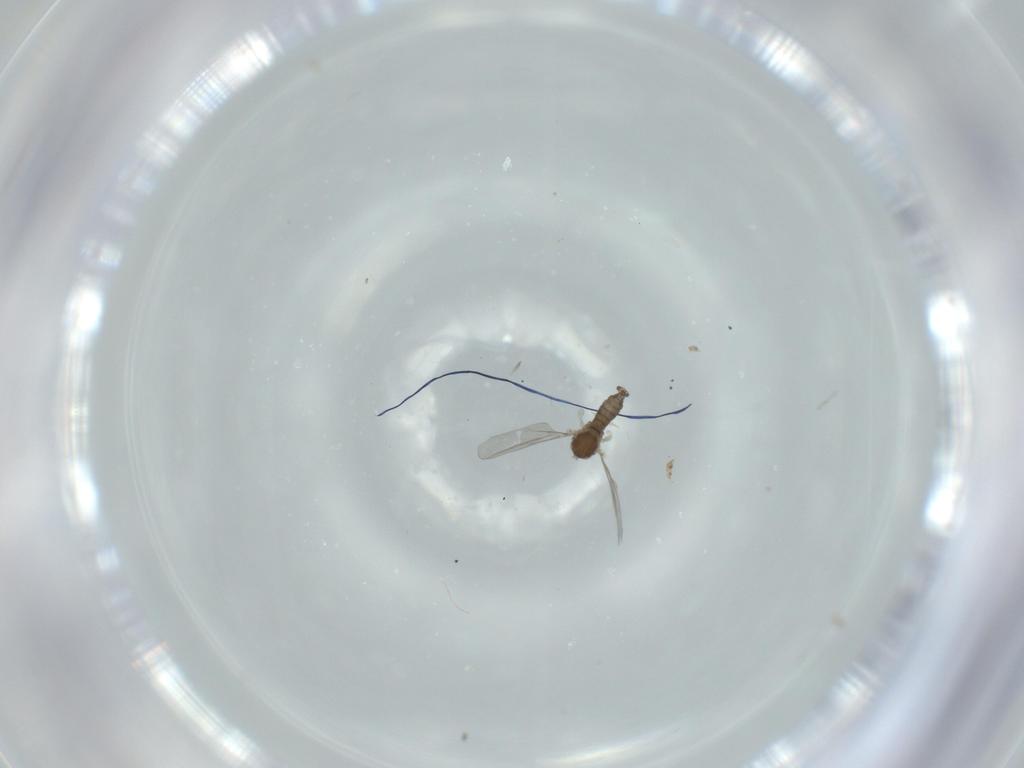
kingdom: Animalia
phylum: Arthropoda
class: Insecta
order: Diptera
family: Cecidomyiidae
